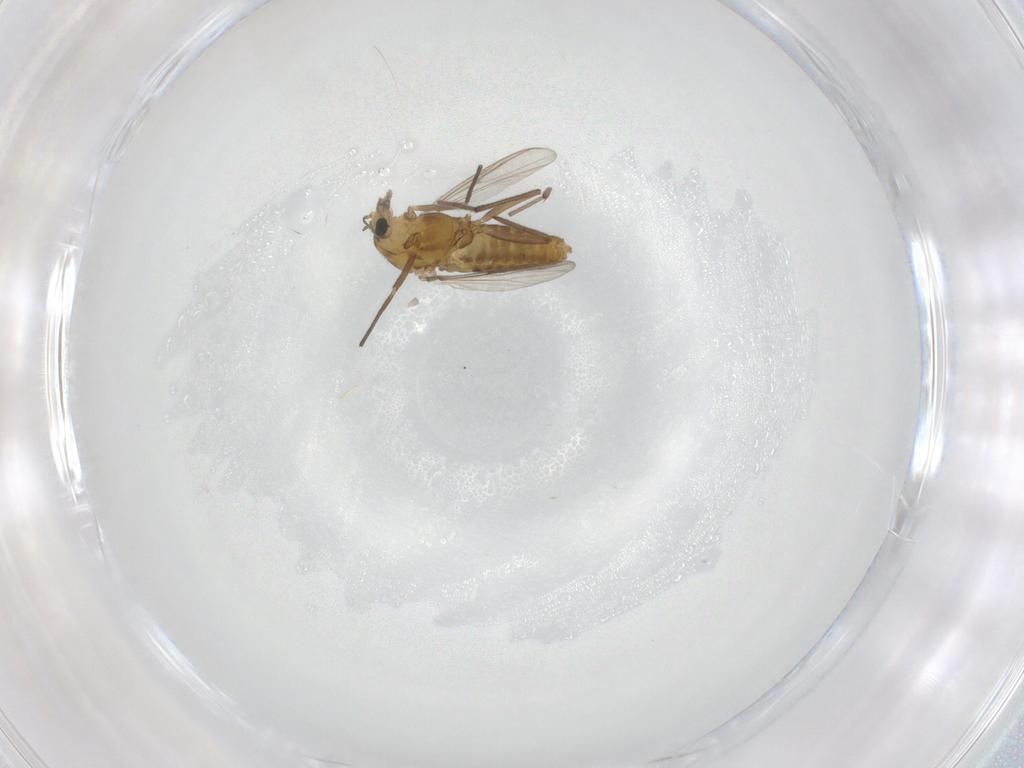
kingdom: Animalia
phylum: Arthropoda
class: Insecta
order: Diptera
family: Chironomidae
